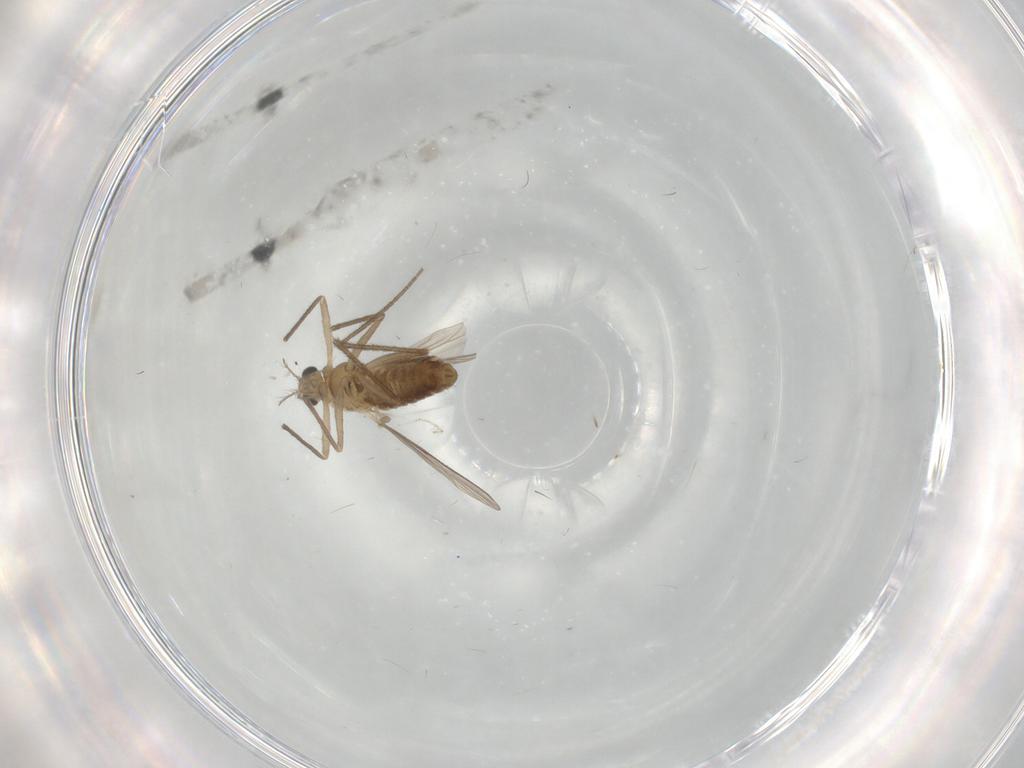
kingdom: Animalia
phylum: Arthropoda
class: Insecta
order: Diptera
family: Chironomidae
